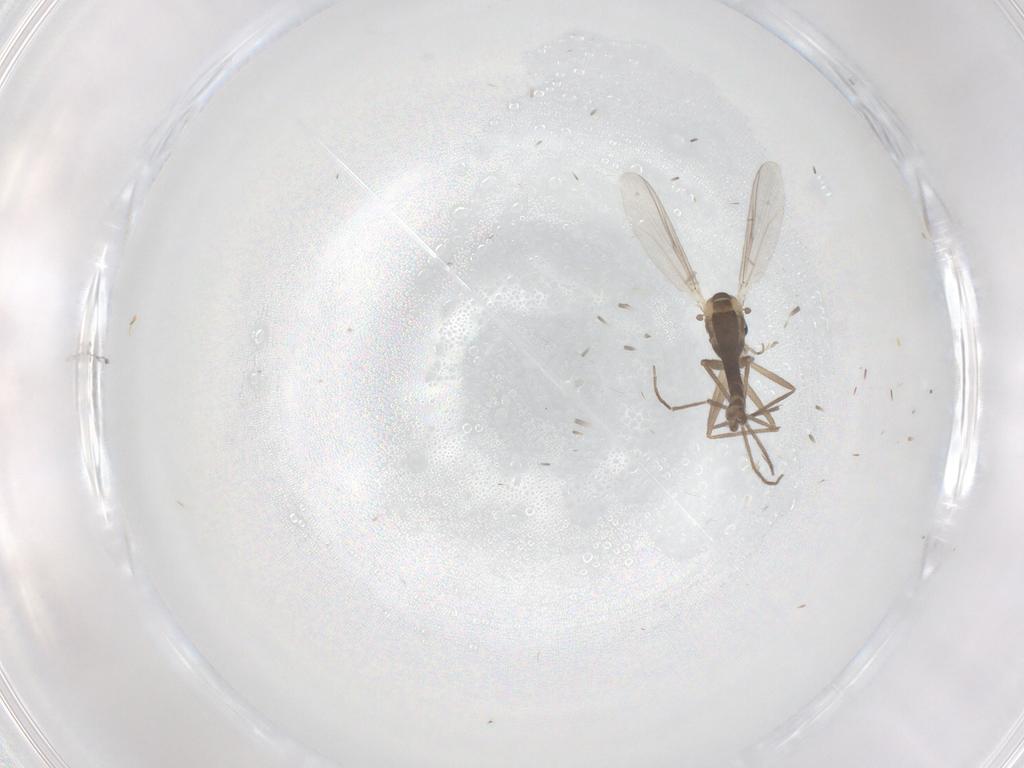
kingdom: Animalia
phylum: Arthropoda
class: Insecta
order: Diptera
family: Chironomidae
